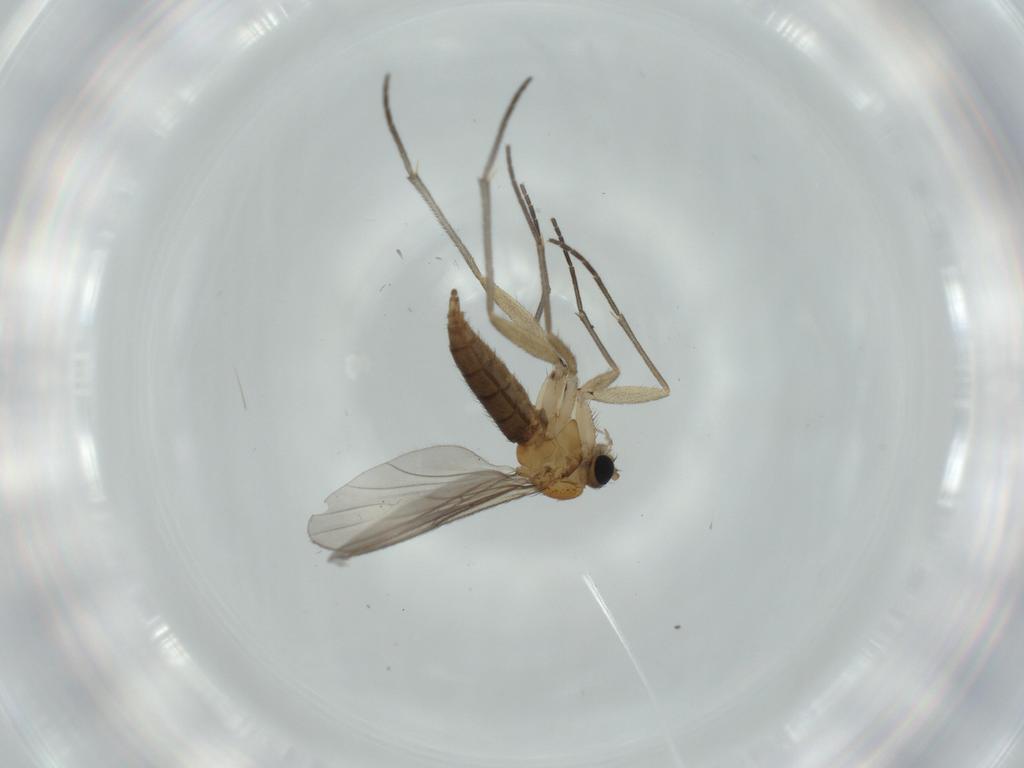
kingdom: Animalia
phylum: Arthropoda
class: Insecta
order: Diptera
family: Sciaridae
